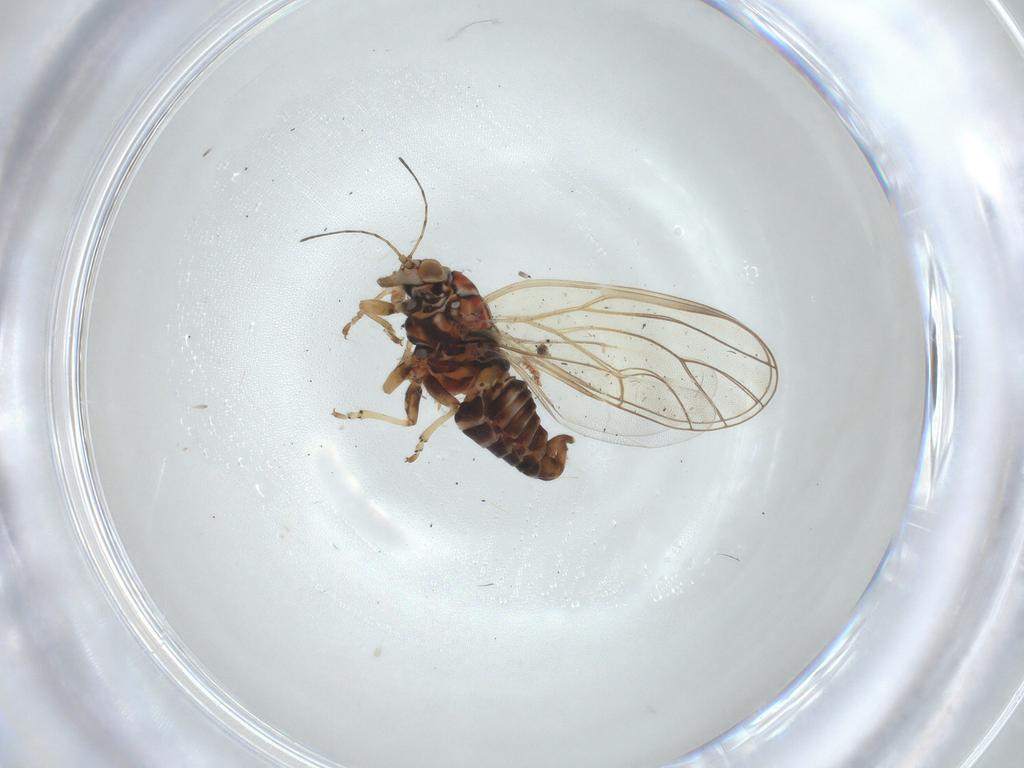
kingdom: Animalia
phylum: Arthropoda
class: Insecta
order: Hemiptera
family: Psyllidae
